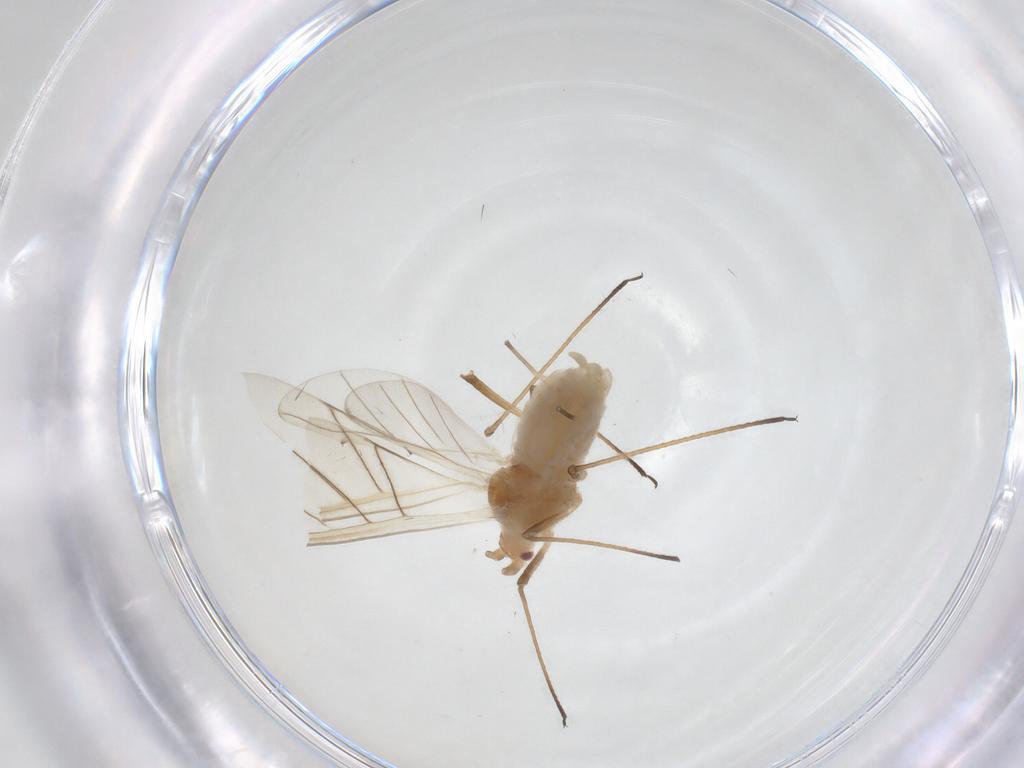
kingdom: Animalia
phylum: Arthropoda
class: Insecta
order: Hemiptera
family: Aphididae
